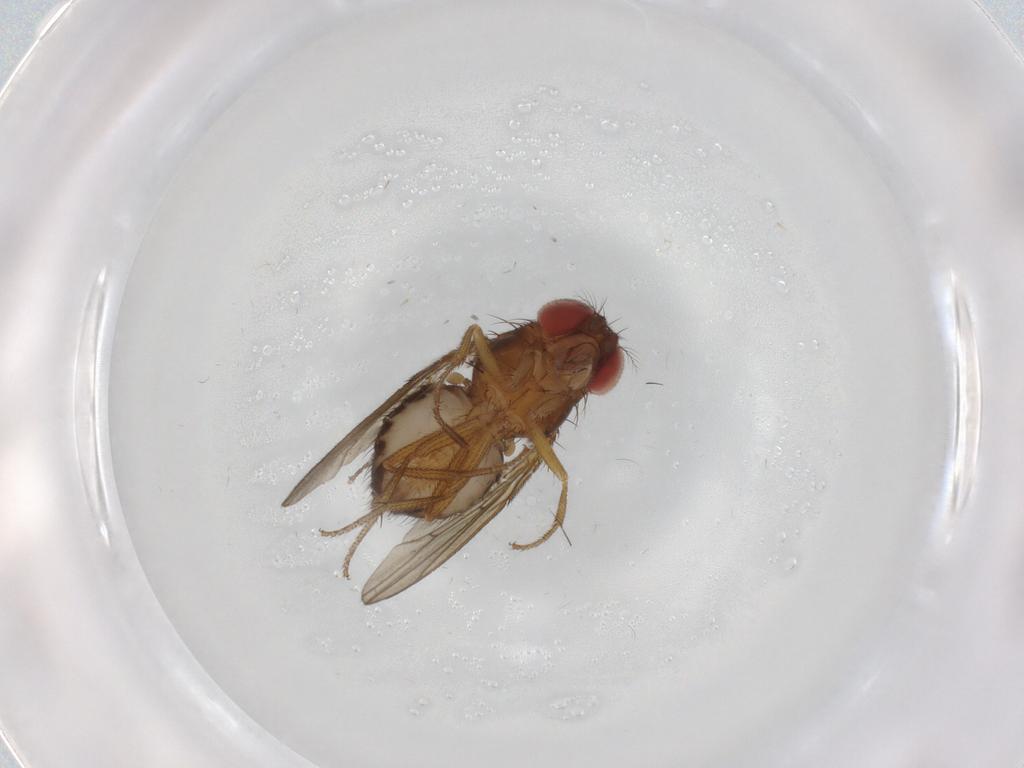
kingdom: Animalia
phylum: Arthropoda
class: Insecta
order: Diptera
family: Drosophilidae
